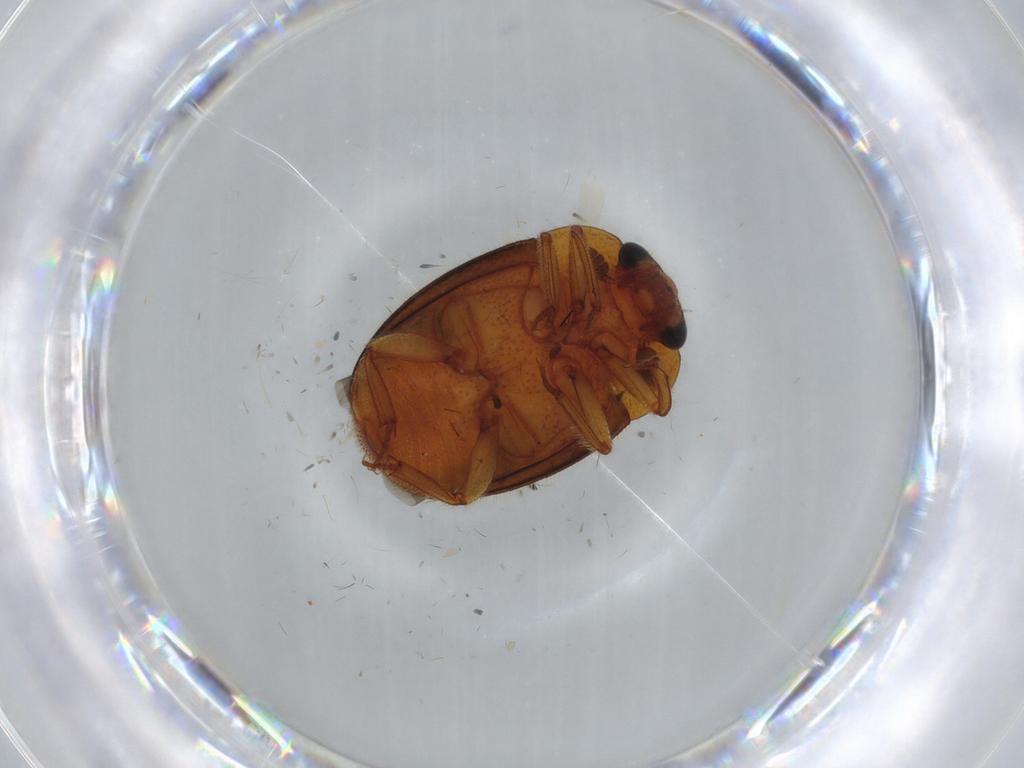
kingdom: Animalia
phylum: Arthropoda
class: Insecta
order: Coleoptera
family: Nitidulidae
